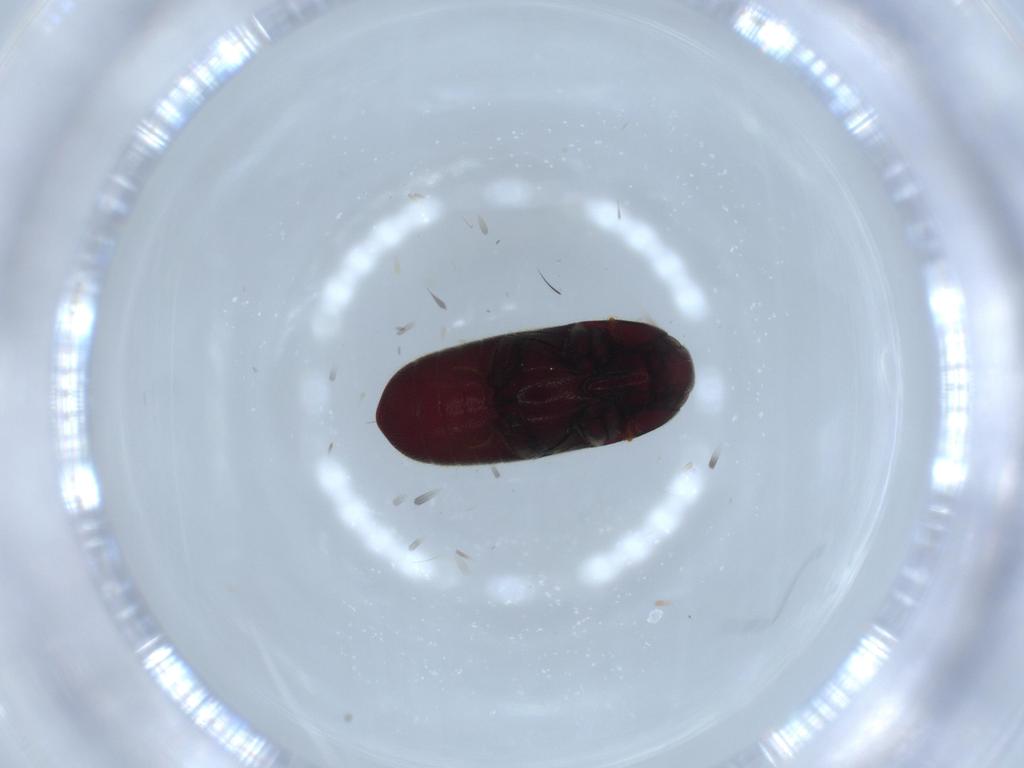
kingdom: Animalia
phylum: Arthropoda
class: Insecta
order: Coleoptera
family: Throscidae
